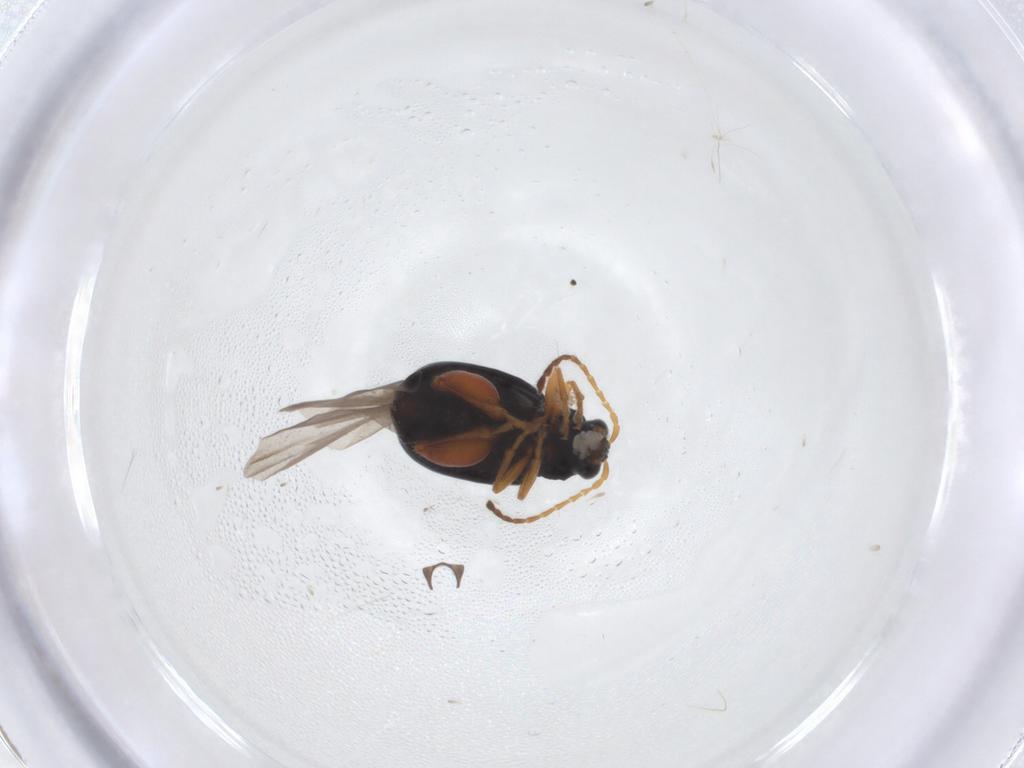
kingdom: Animalia
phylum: Arthropoda
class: Insecta
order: Coleoptera
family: Chrysomelidae
